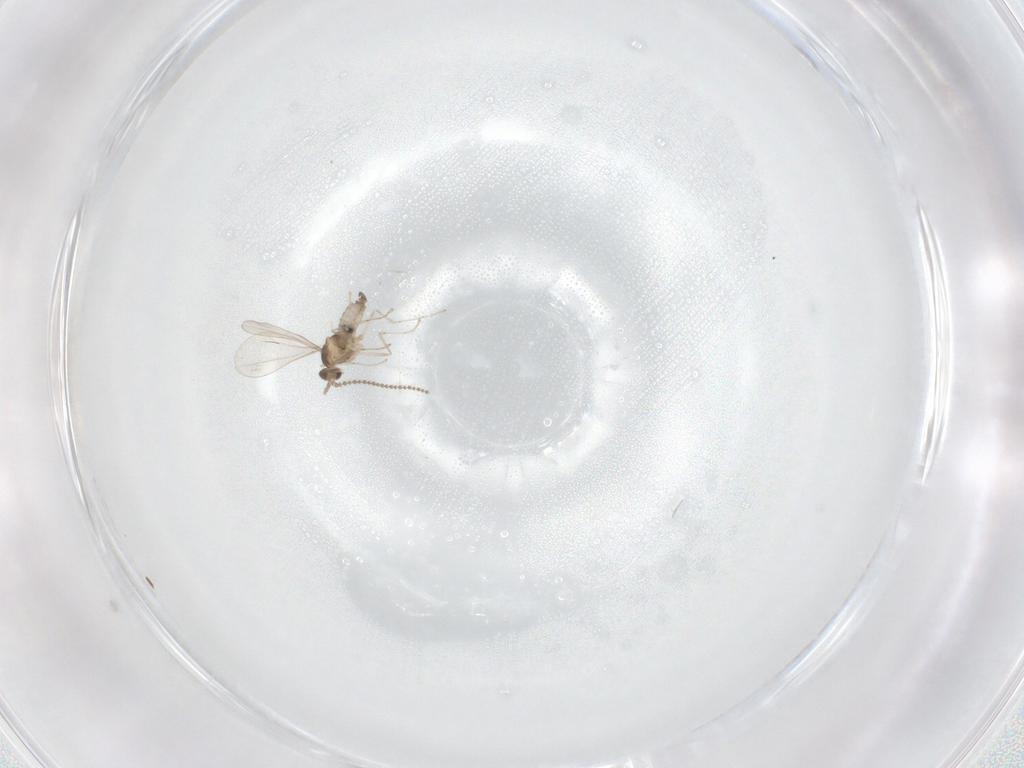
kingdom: Animalia
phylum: Arthropoda
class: Insecta
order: Diptera
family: Cecidomyiidae
